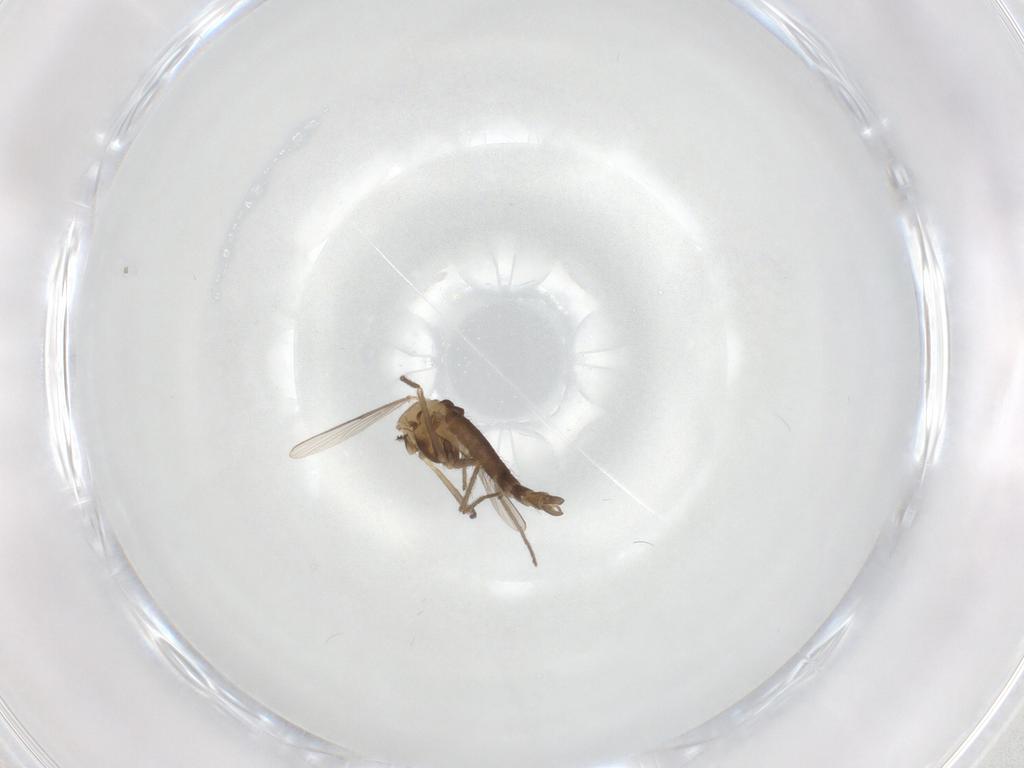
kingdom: Animalia
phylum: Arthropoda
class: Insecta
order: Diptera
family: Chironomidae
